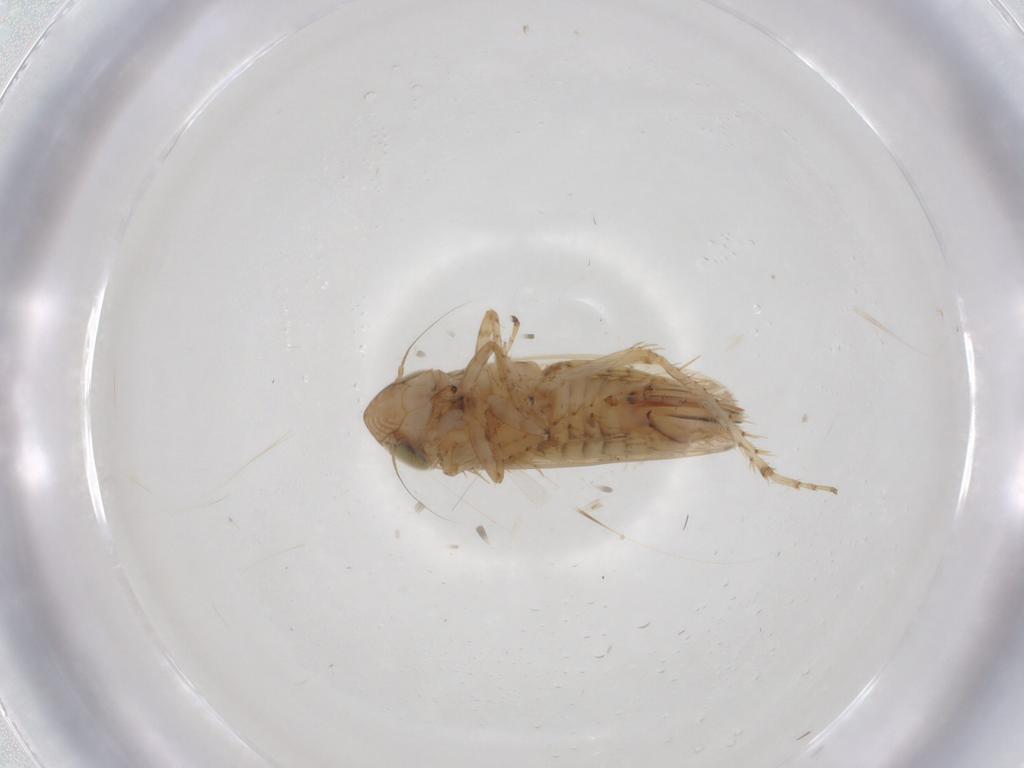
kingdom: Animalia
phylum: Arthropoda
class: Insecta
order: Hemiptera
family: Cicadellidae
